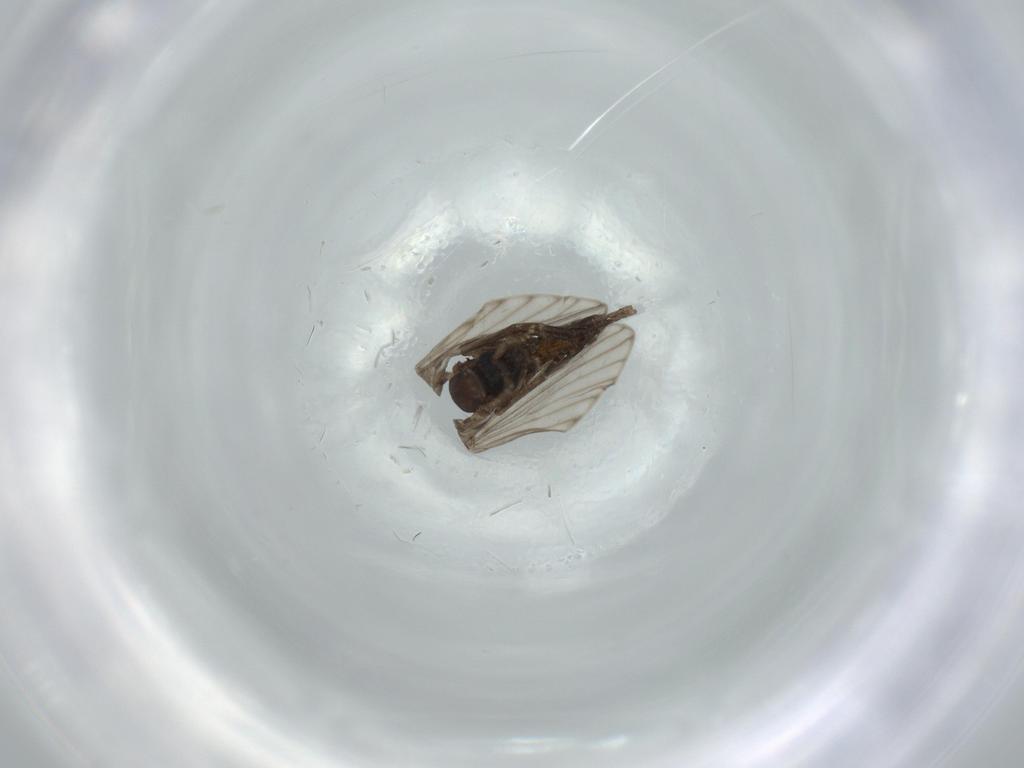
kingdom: Animalia
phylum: Arthropoda
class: Insecta
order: Diptera
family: Psychodidae
